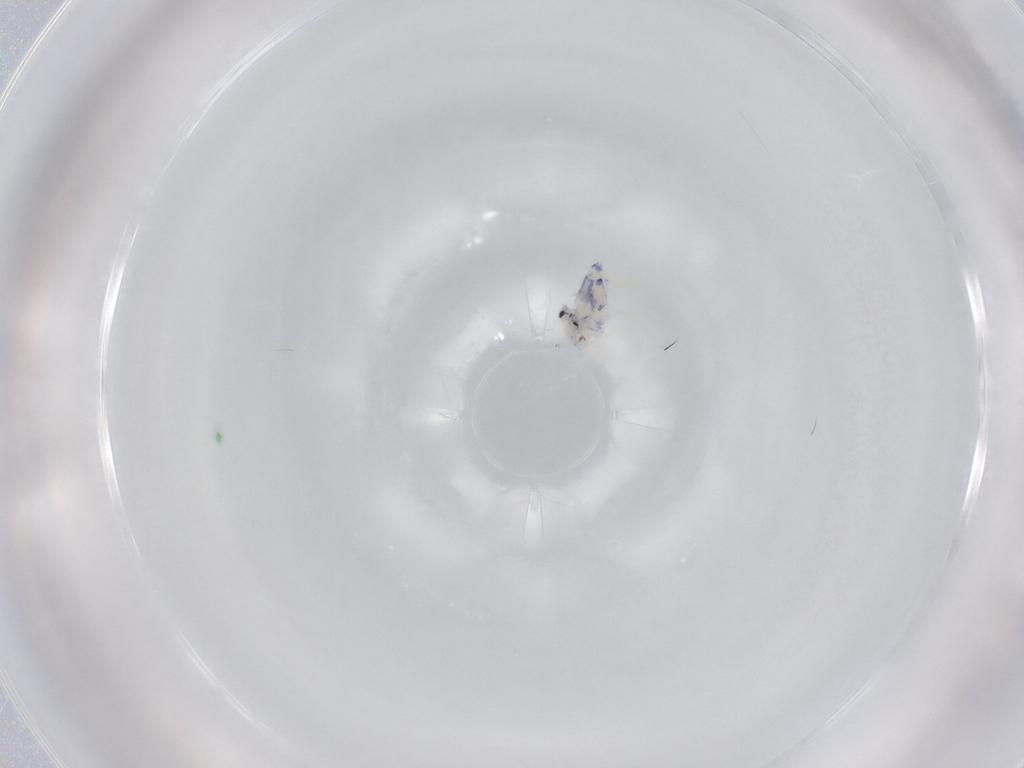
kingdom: Animalia
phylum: Arthropoda
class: Collembola
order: Entomobryomorpha
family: Entomobryidae
